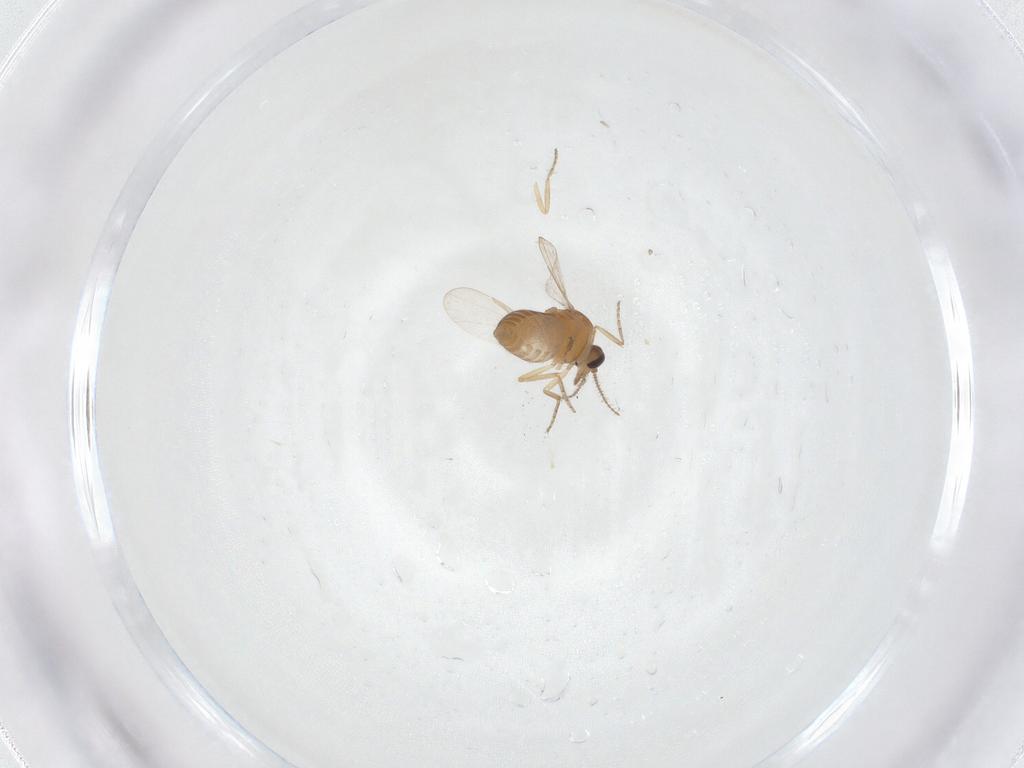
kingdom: Animalia
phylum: Arthropoda
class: Insecta
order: Diptera
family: Ceratopogonidae
